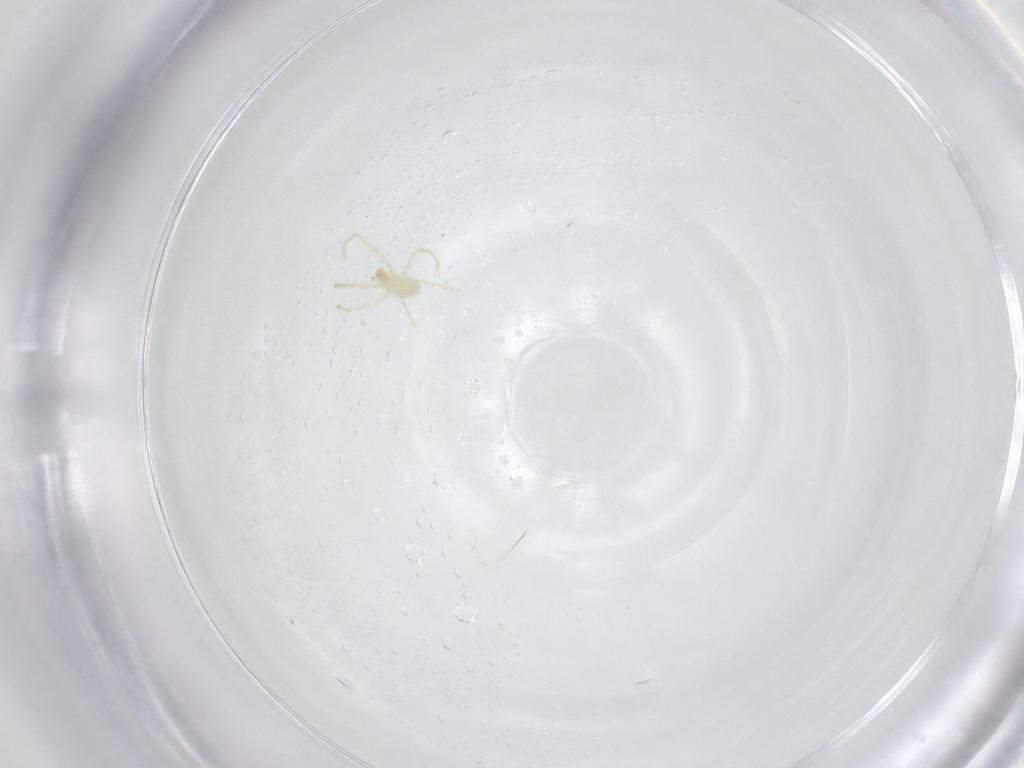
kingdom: Animalia
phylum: Arthropoda
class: Arachnida
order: Trombidiformes
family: Erythraeidae
